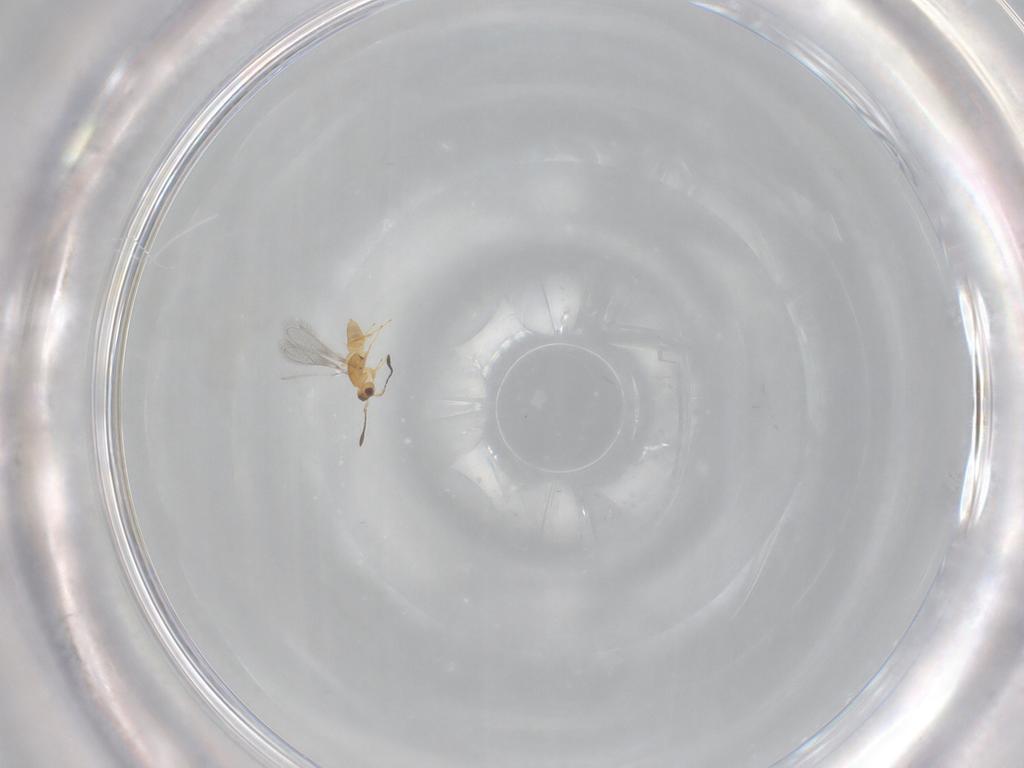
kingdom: Animalia
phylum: Arthropoda
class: Insecta
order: Hymenoptera
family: Mymaridae
